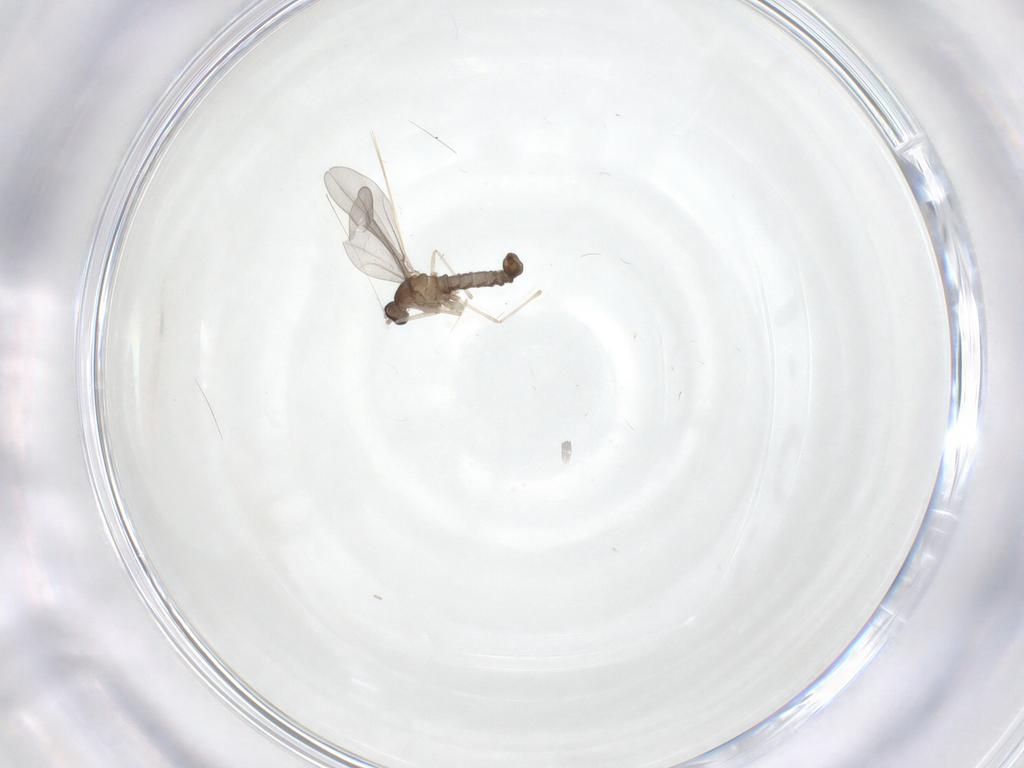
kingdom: Animalia
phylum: Arthropoda
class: Insecta
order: Diptera
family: Cecidomyiidae
